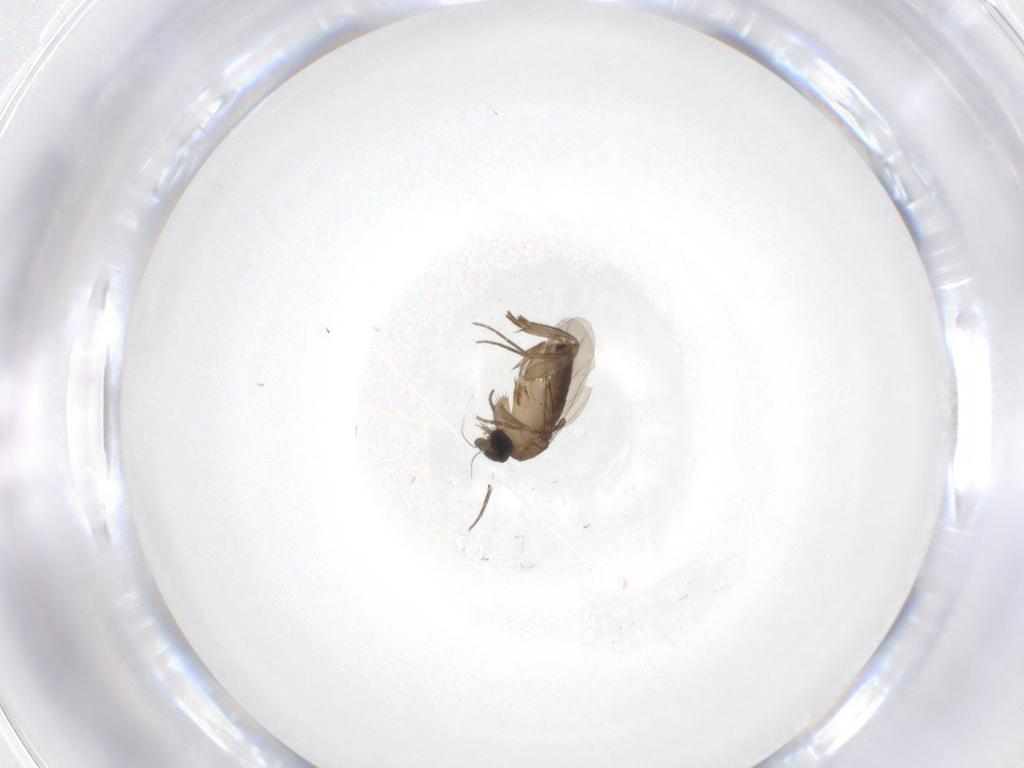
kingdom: Animalia
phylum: Arthropoda
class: Insecta
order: Diptera
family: Phoridae
